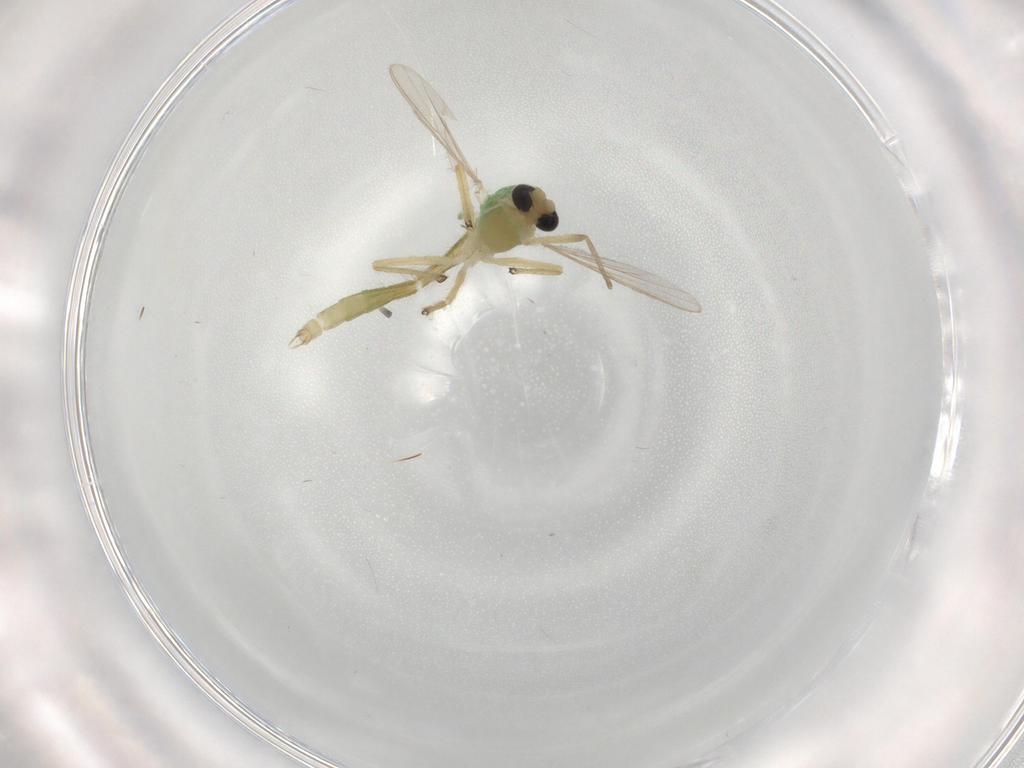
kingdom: Animalia
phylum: Arthropoda
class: Insecta
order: Diptera
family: Chironomidae
